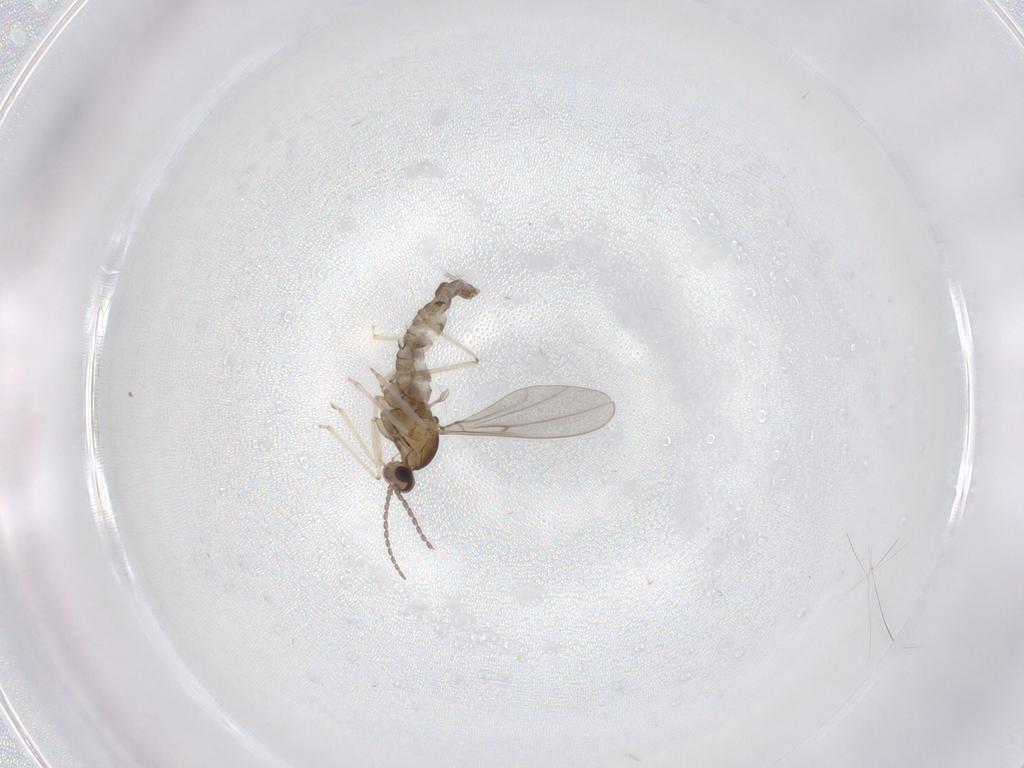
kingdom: Animalia
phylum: Arthropoda
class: Insecta
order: Diptera
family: Cecidomyiidae
